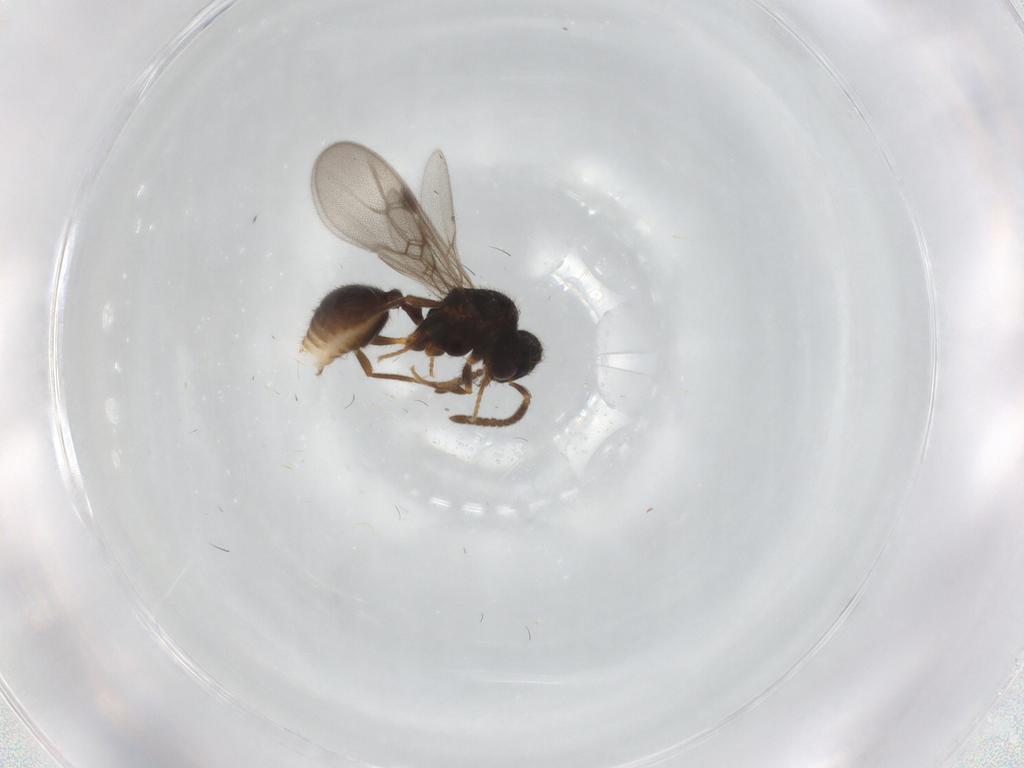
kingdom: Animalia
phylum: Arthropoda
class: Insecta
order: Hymenoptera
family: Formicidae
